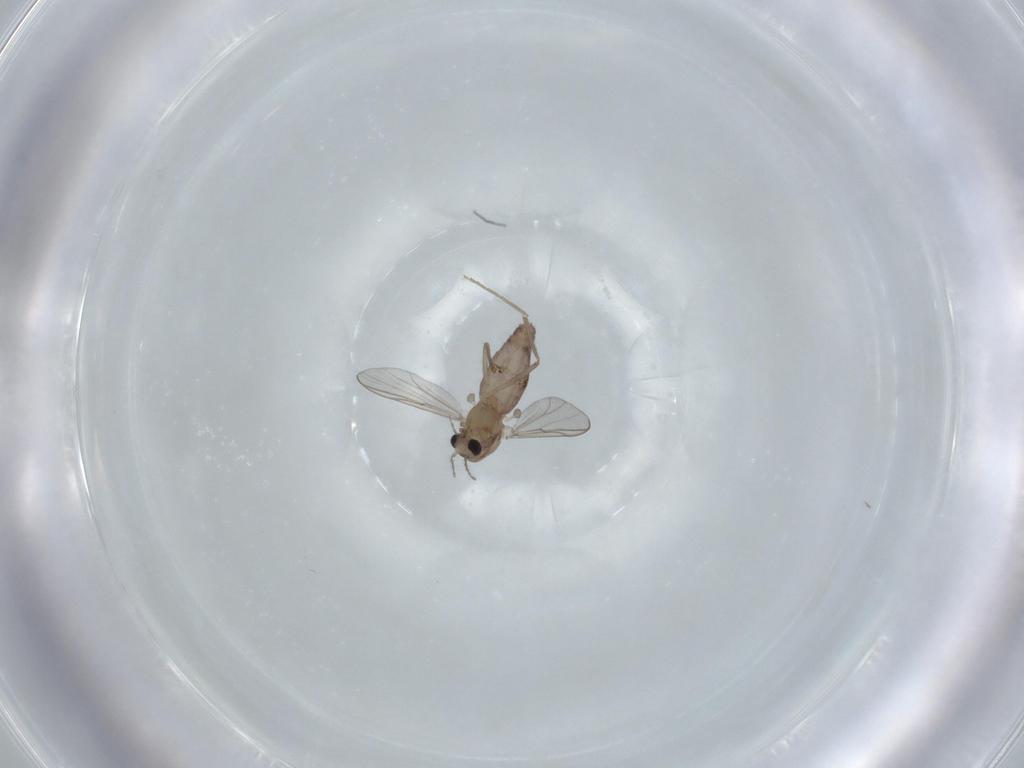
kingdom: Animalia
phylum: Arthropoda
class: Insecta
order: Diptera
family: Chironomidae
